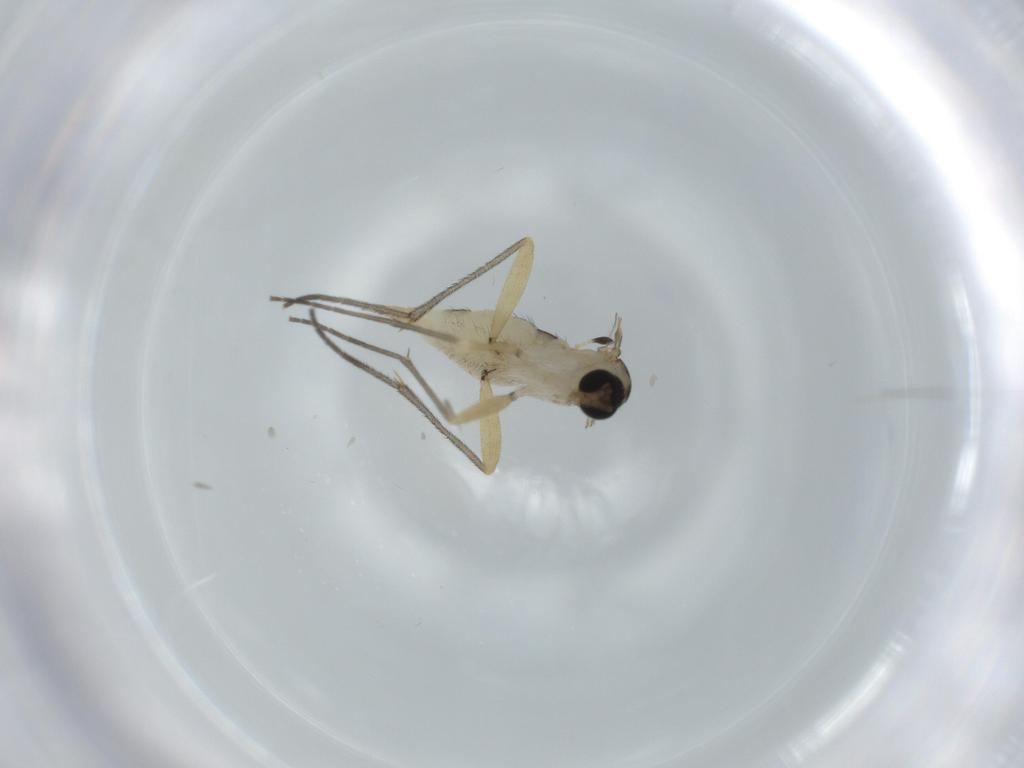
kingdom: Animalia
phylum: Arthropoda
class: Insecta
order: Diptera
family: Sciaridae
